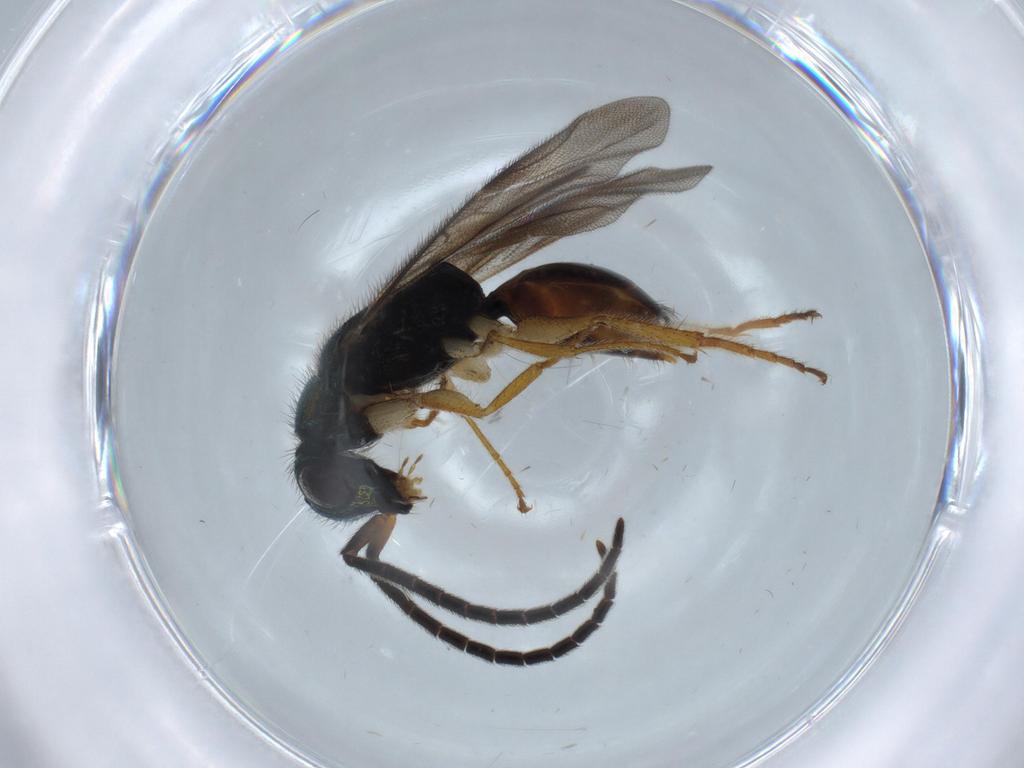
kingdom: Animalia
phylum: Arthropoda
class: Insecta
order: Hymenoptera
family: Chrysididae
